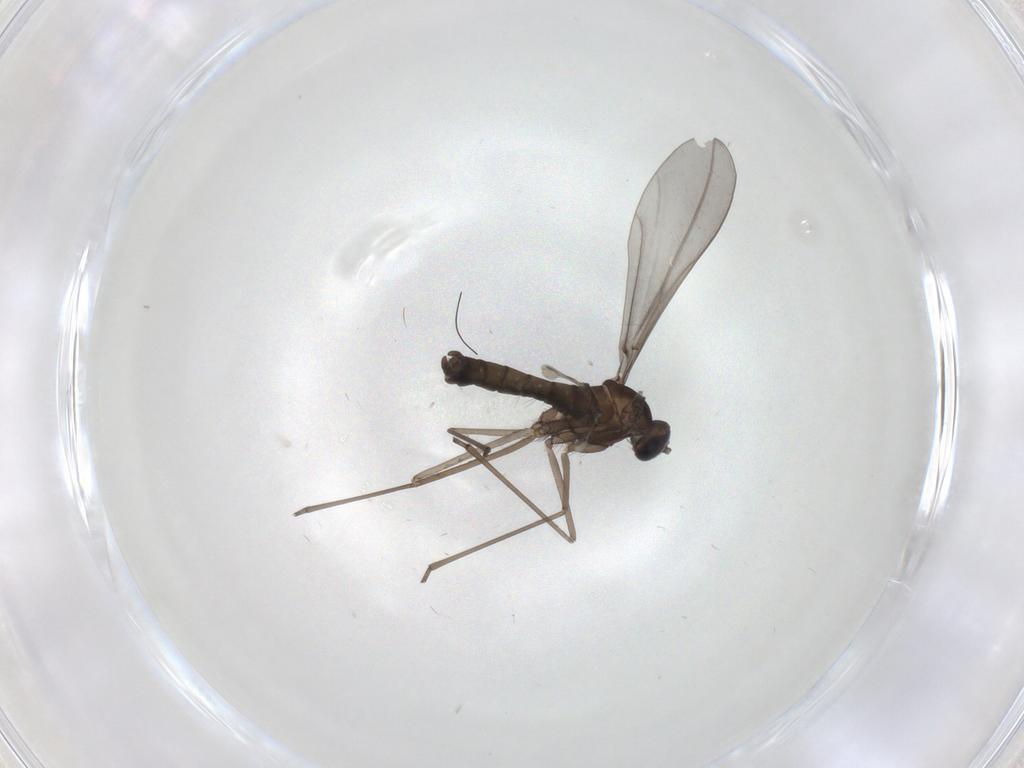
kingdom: Animalia
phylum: Arthropoda
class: Insecta
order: Diptera
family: Cecidomyiidae
